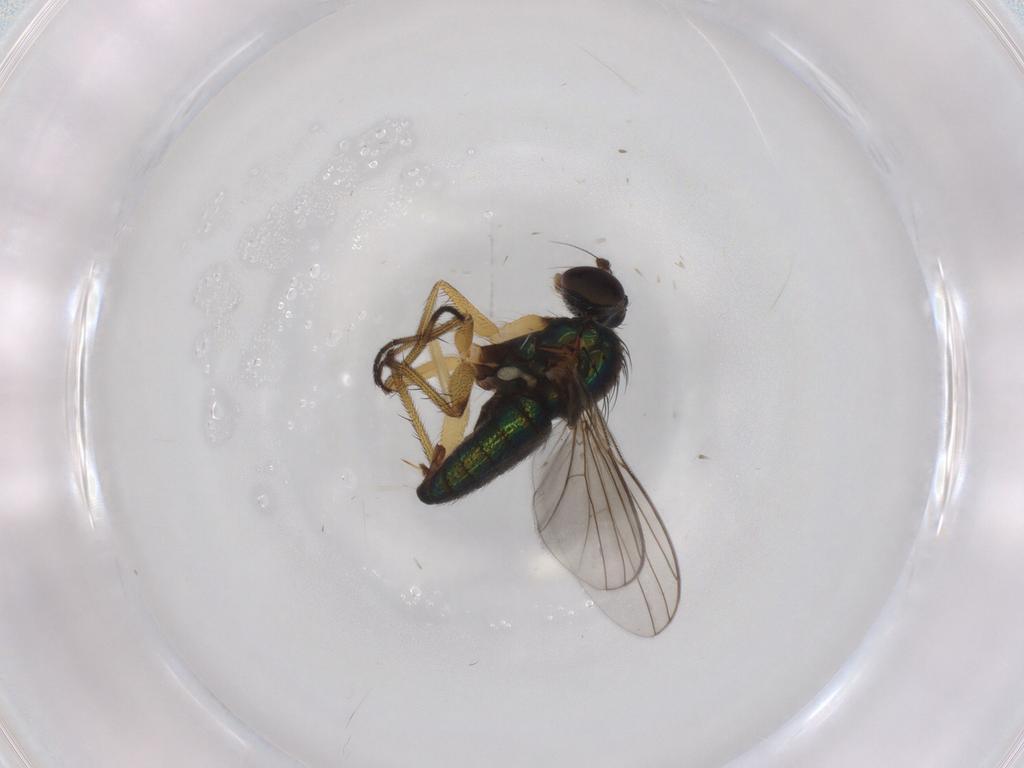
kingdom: Animalia
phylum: Arthropoda
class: Insecta
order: Diptera
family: Dolichopodidae
